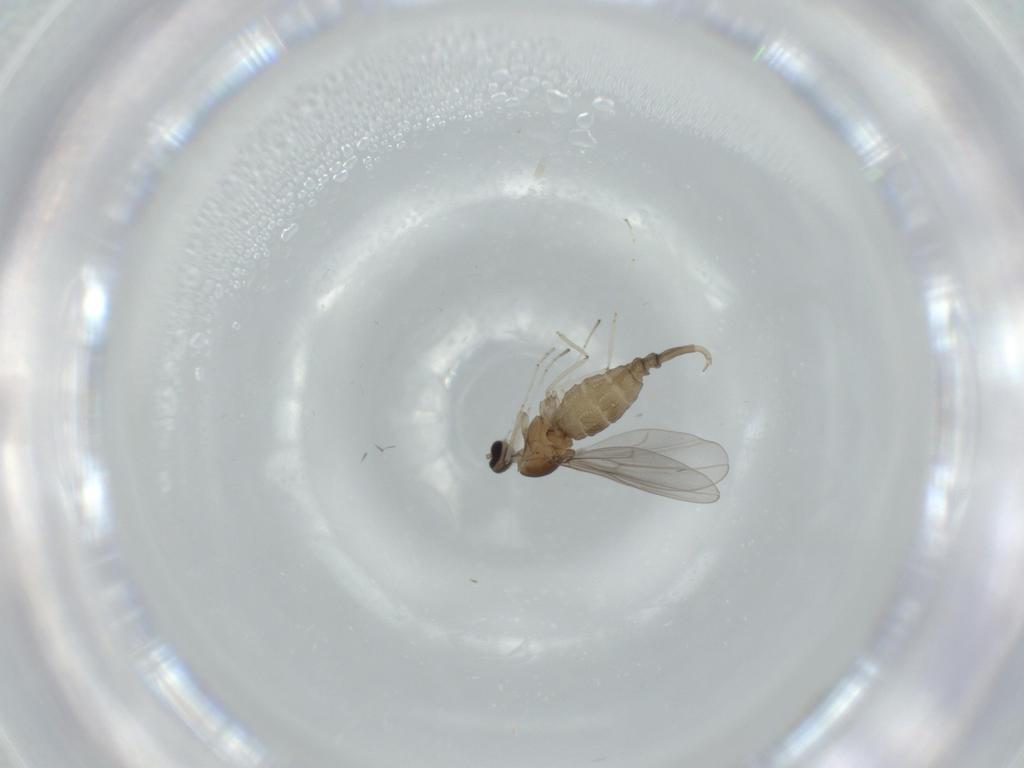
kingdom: Animalia
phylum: Arthropoda
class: Insecta
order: Diptera
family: Cecidomyiidae
